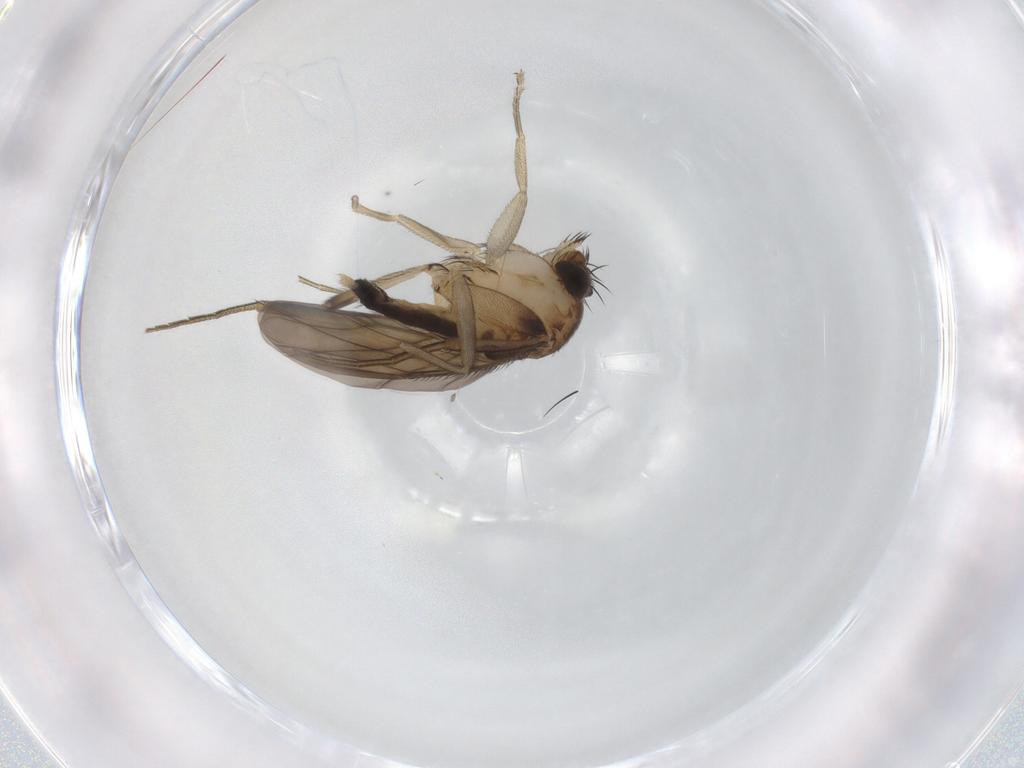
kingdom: Animalia
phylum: Arthropoda
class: Insecta
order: Diptera
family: Phoridae
